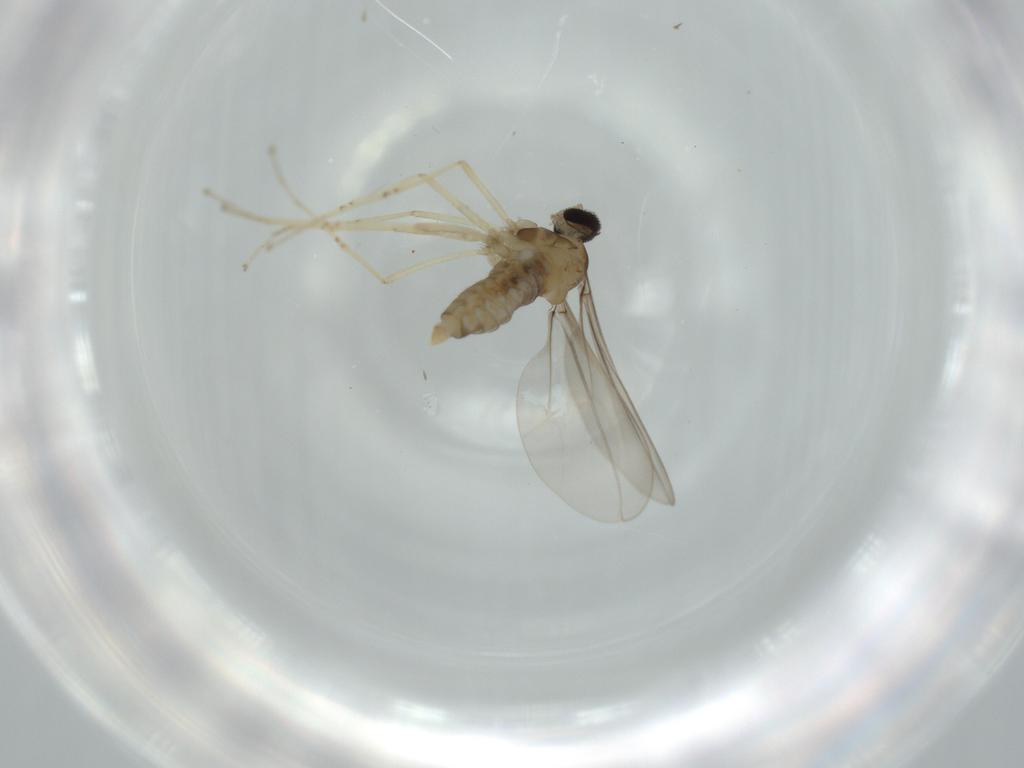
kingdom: Animalia
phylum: Arthropoda
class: Insecta
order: Diptera
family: Cecidomyiidae
